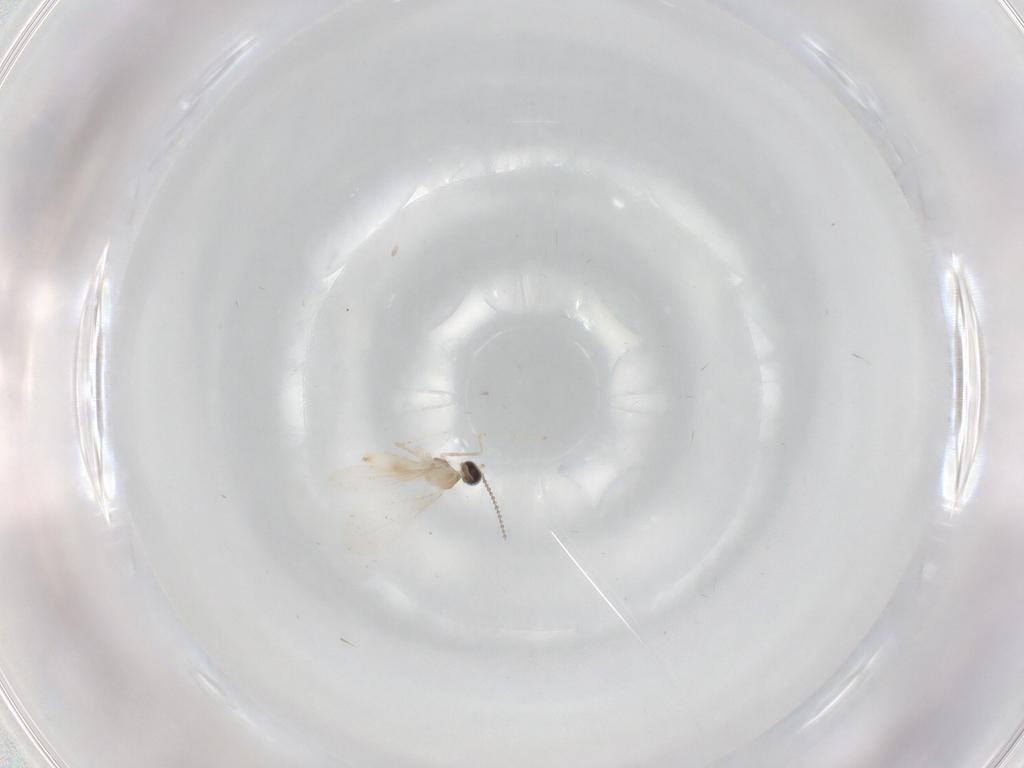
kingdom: Animalia
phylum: Arthropoda
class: Insecta
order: Diptera
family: Cecidomyiidae
